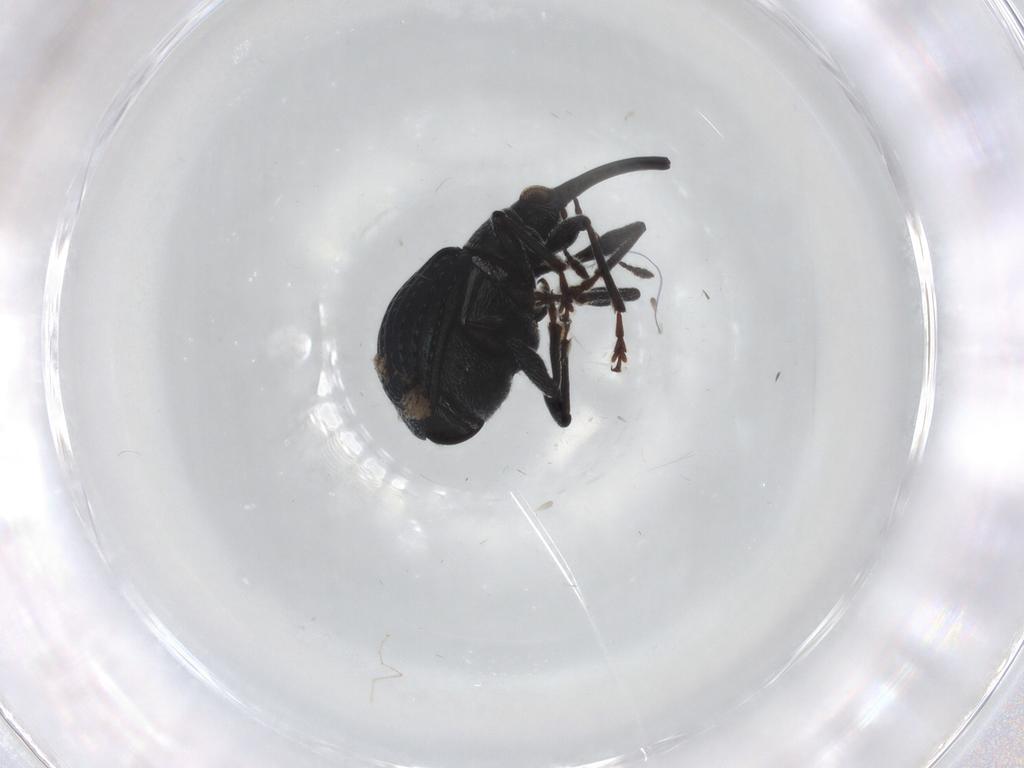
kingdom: Animalia
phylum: Arthropoda
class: Insecta
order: Coleoptera
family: Brentidae
